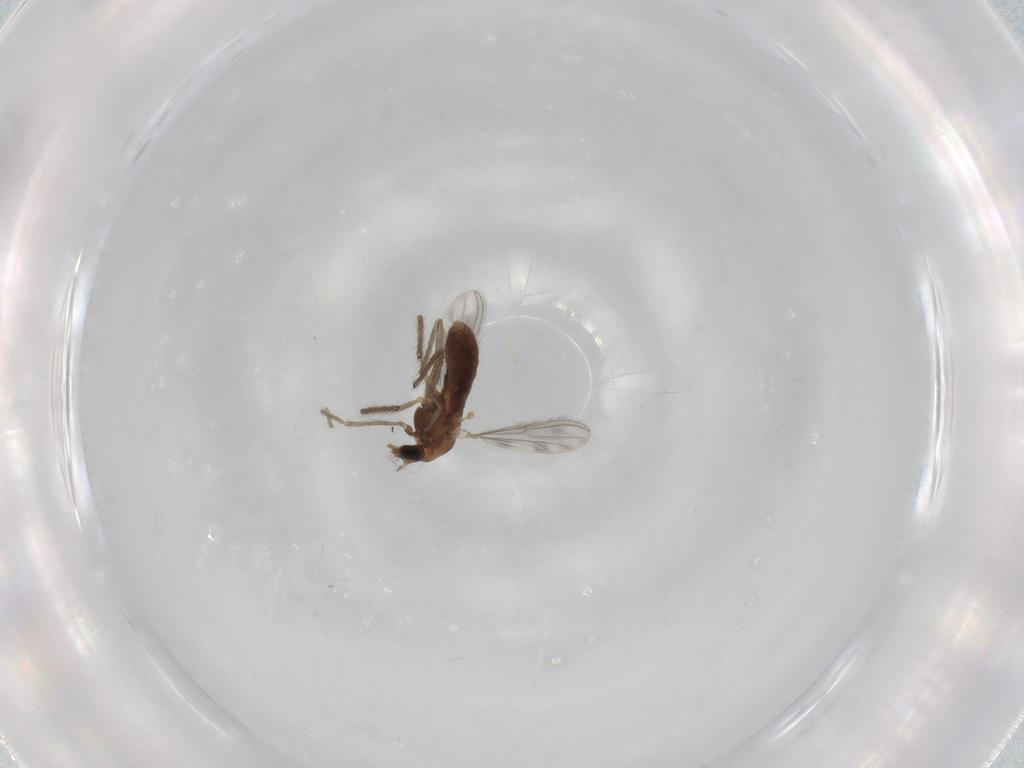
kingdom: Animalia
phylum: Arthropoda
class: Insecta
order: Diptera
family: Chironomidae
